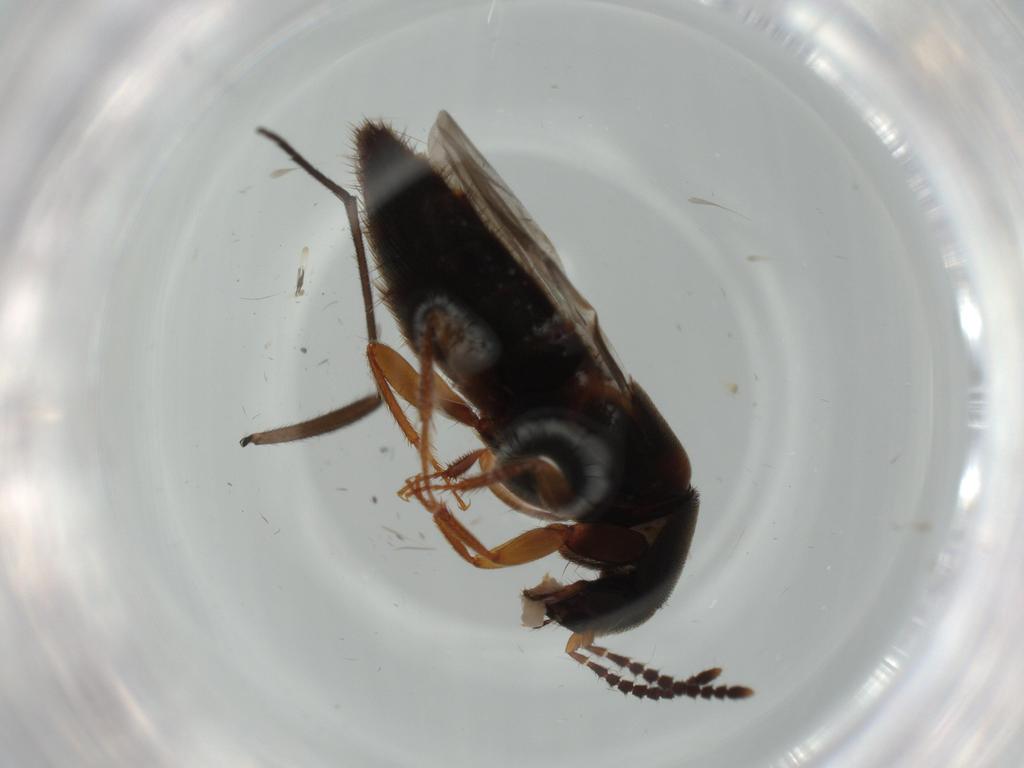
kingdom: Animalia
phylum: Arthropoda
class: Insecta
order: Coleoptera
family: Staphylinidae
